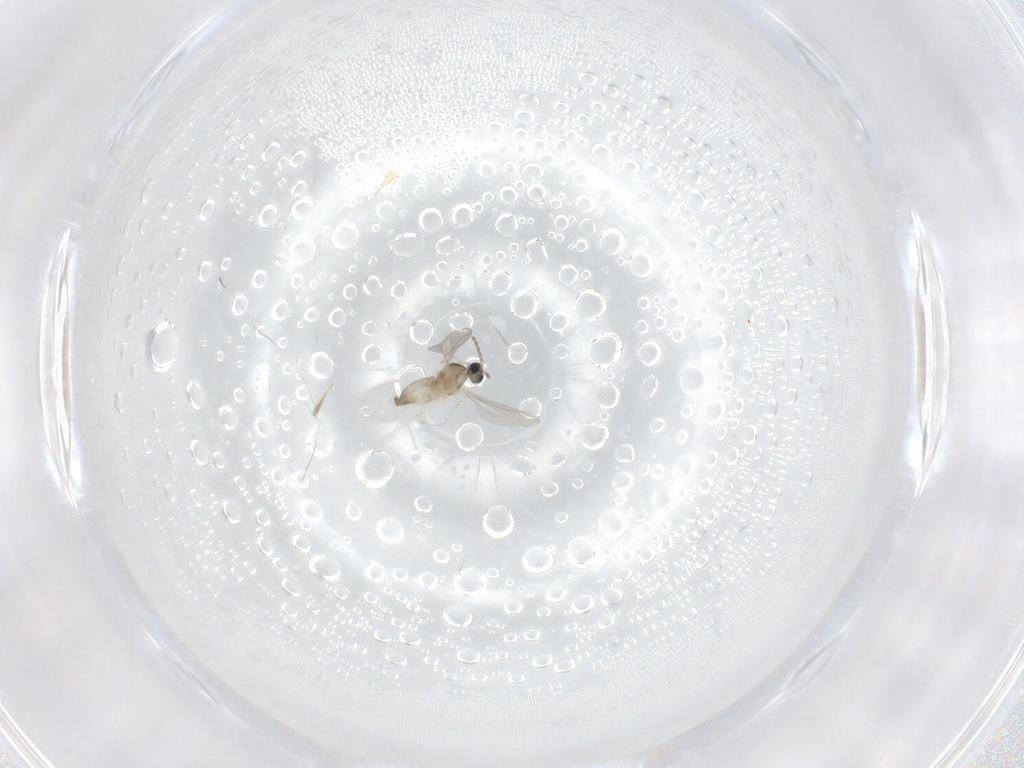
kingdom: Animalia
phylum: Arthropoda
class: Insecta
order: Diptera
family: Cecidomyiidae
